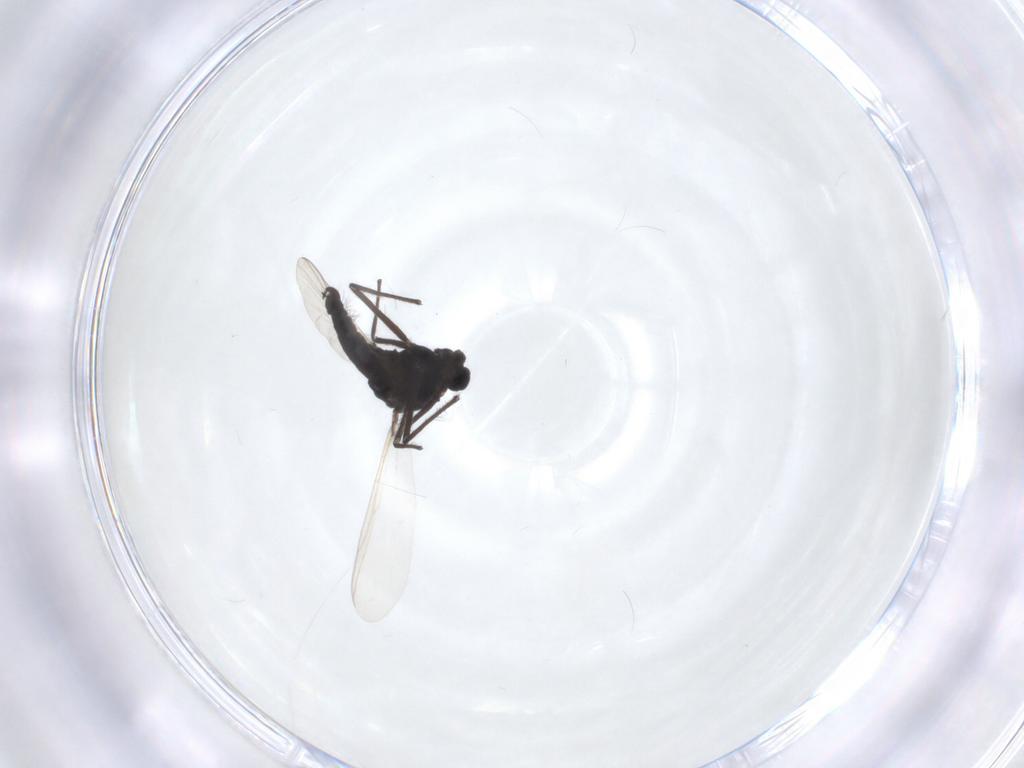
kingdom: Animalia
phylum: Arthropoda
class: Insecta
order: Diptera
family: Chironomidae
